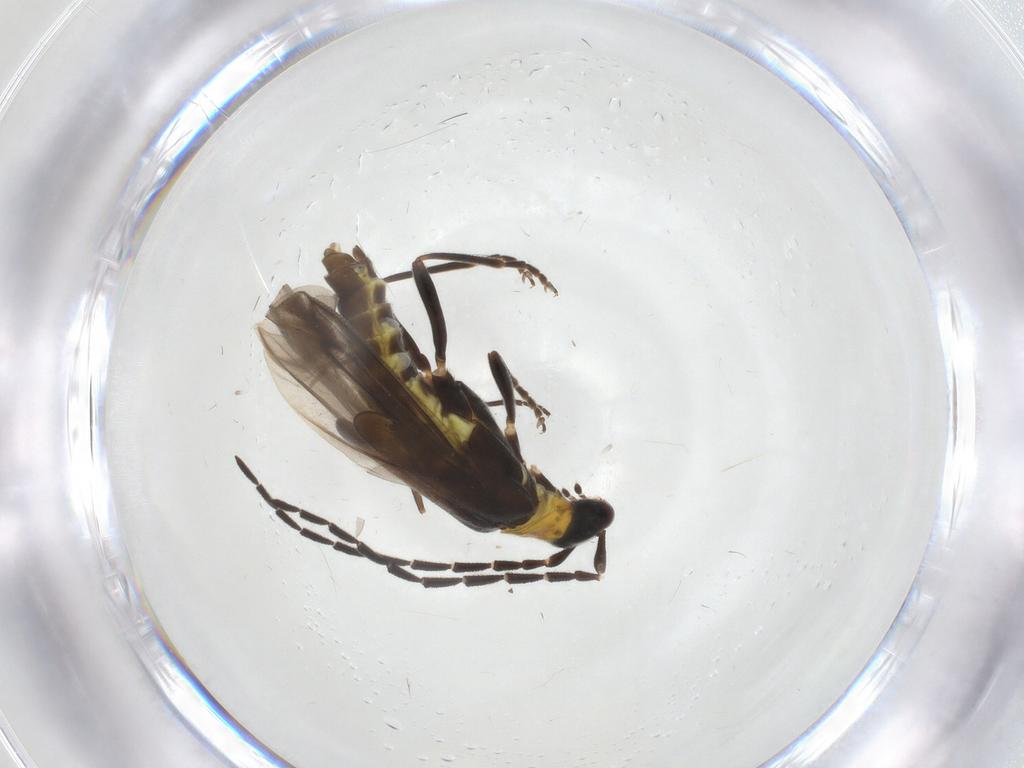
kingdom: Animalia
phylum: Arthropoda
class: Insecta
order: Coleoptera
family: Cantharidae
